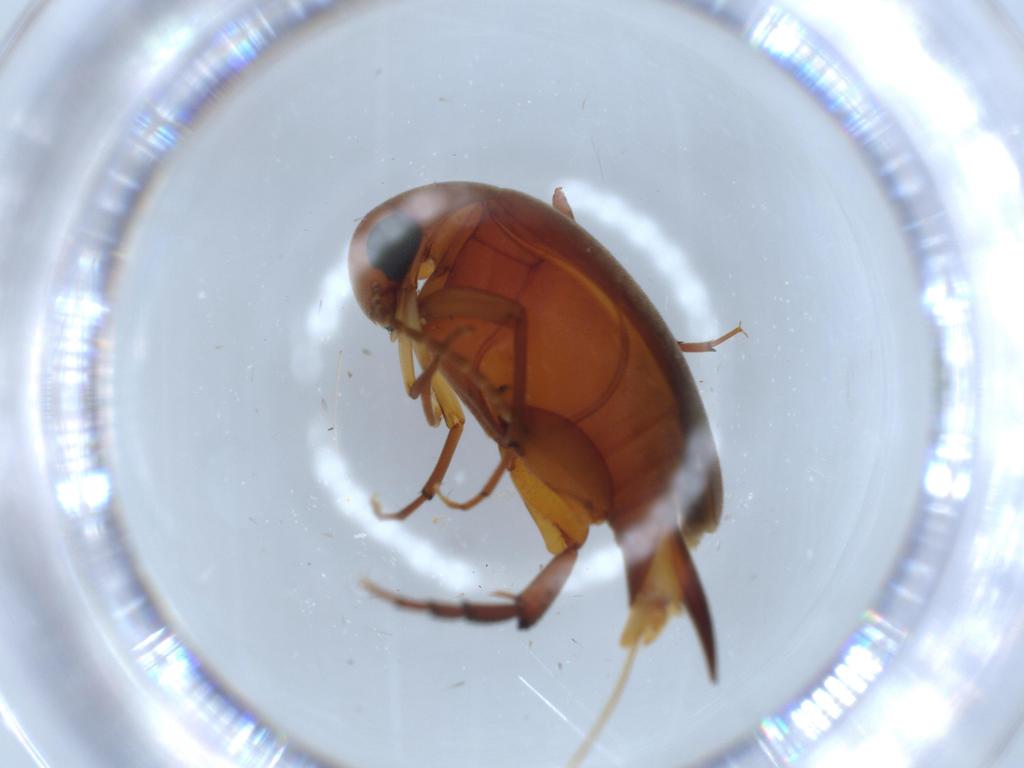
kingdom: Animalia
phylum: Arthropoda
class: Insecta
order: Coleoptera
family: Mordellidae
